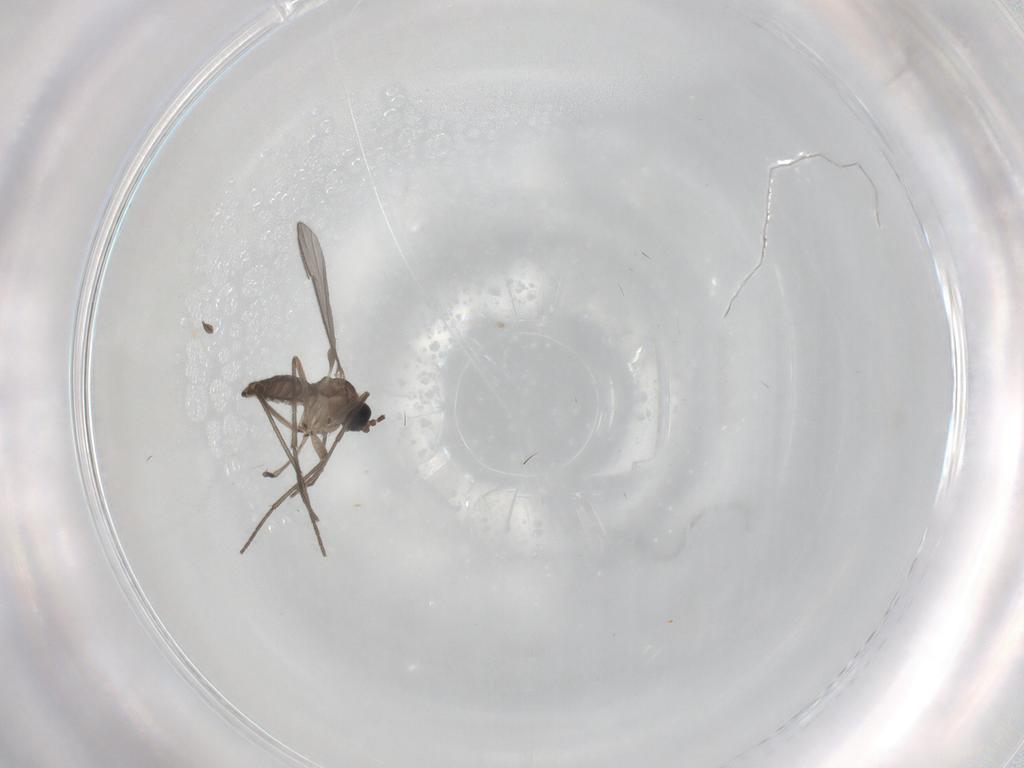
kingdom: Animalia
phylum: Arthropoda
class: Insecta
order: Diptera
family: Sciaridae
